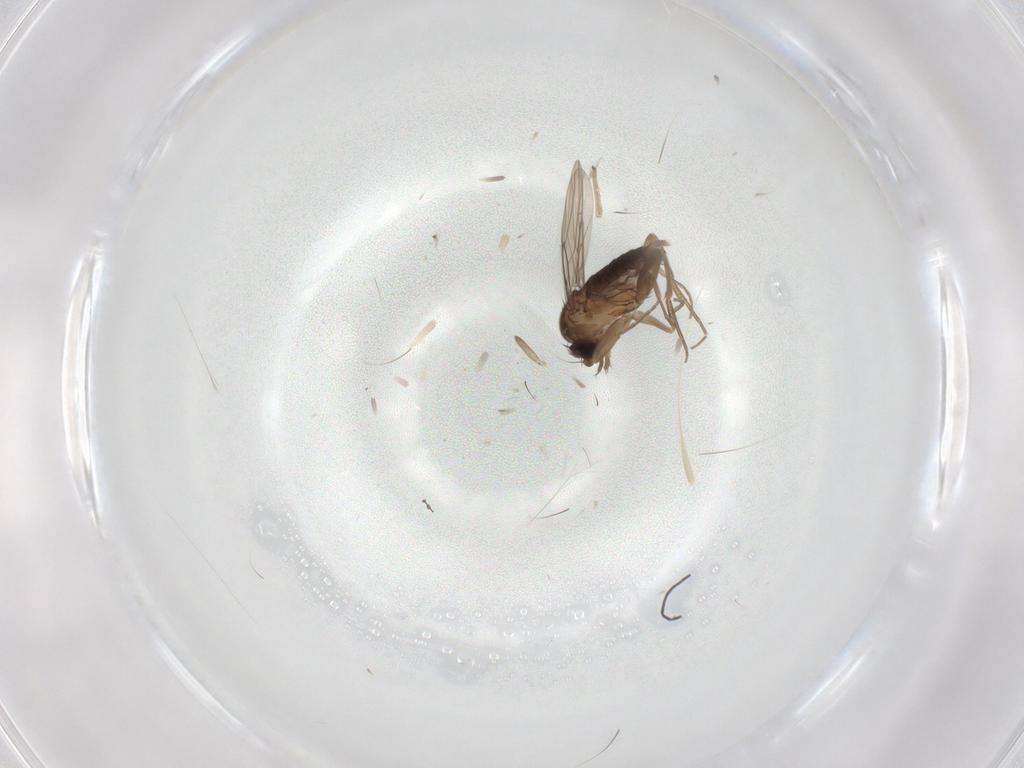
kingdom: Animalia
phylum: Arthropoda
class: Insecta
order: Diptera
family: Phoridae
